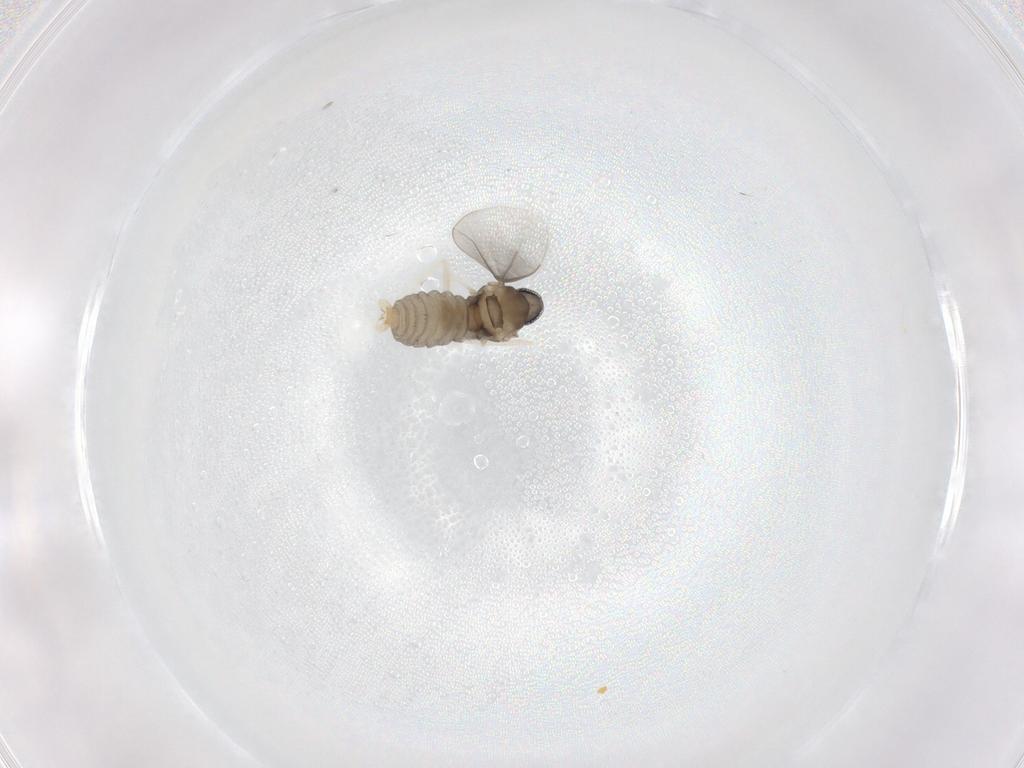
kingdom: Animalia
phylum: Arthropoda
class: Insecta
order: Diptera
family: Cecidomyiidae
